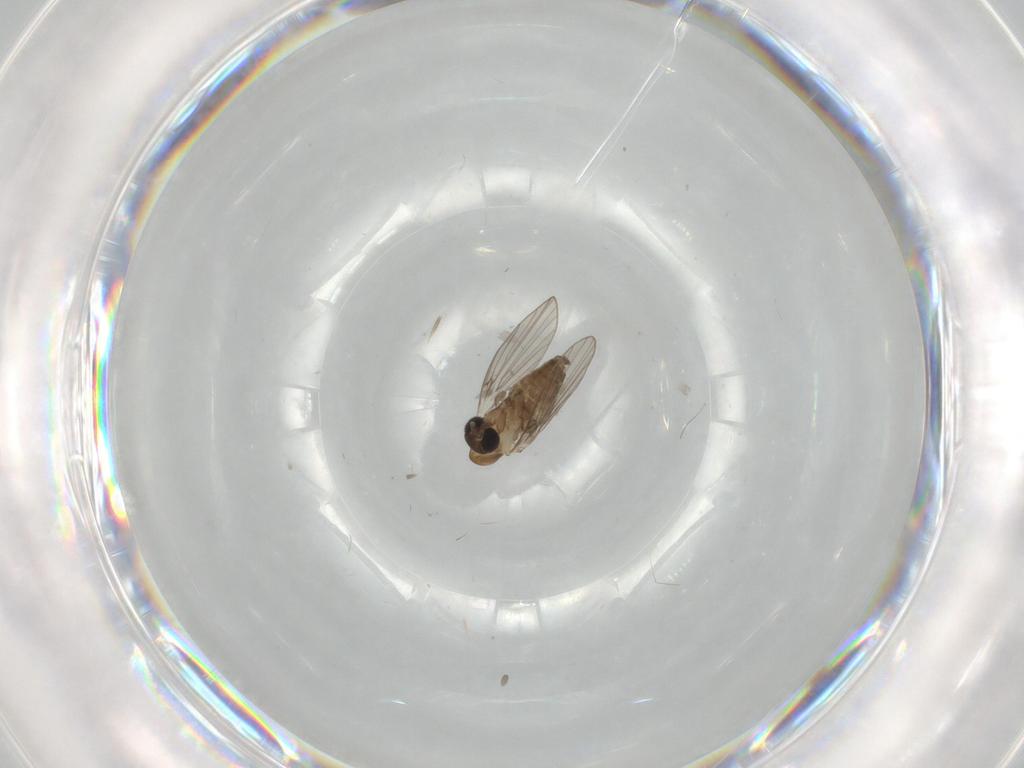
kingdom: Animalia
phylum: Arthropoda
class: Insecta
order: Diptera
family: Psychodidae
